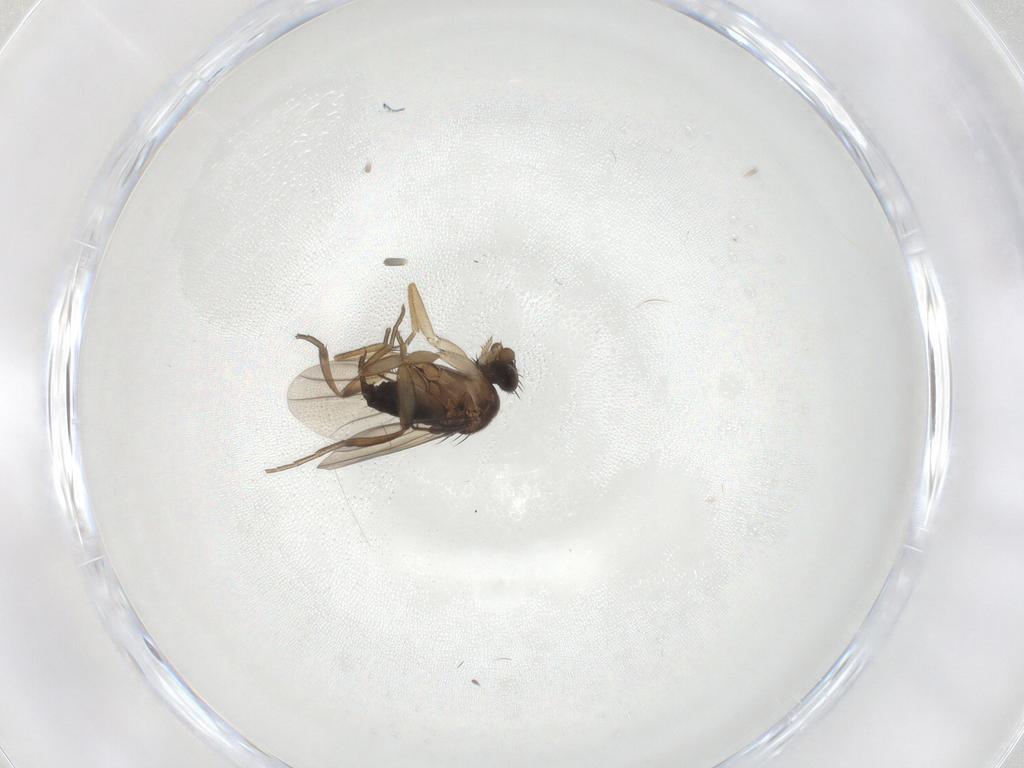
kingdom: Animalia
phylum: Arthropoda
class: Insecta
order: Diptera
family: Phoridae
